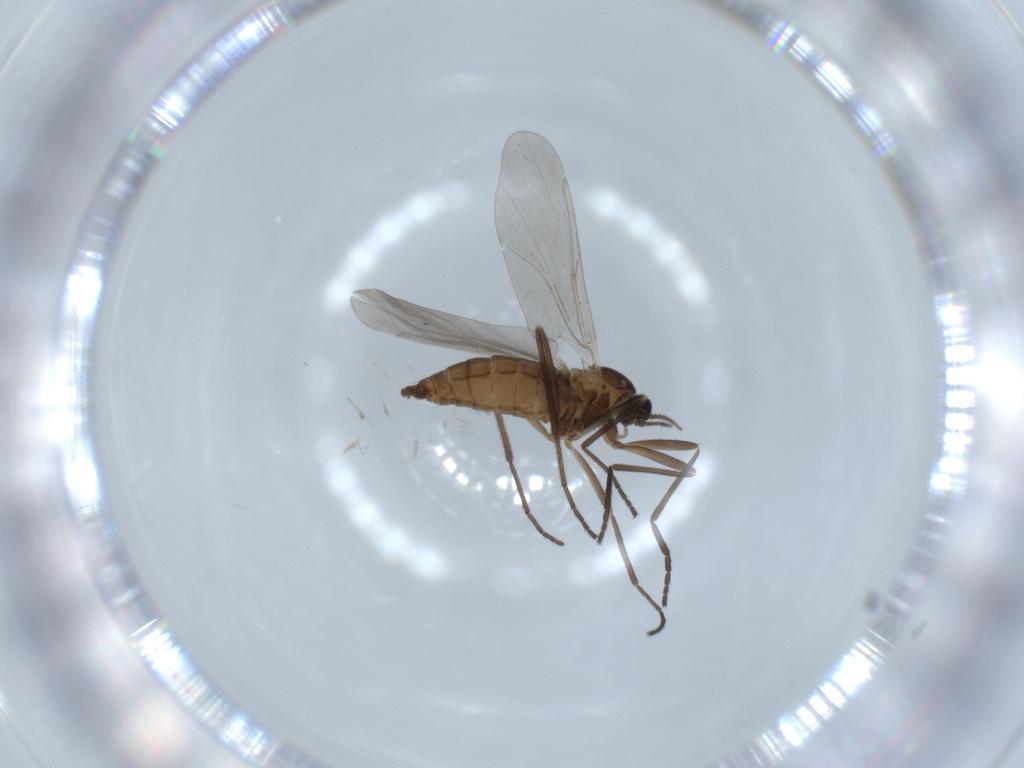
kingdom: Animalia
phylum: Arthropoda
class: Insecta
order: Diptera
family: Cecidomyiidae
